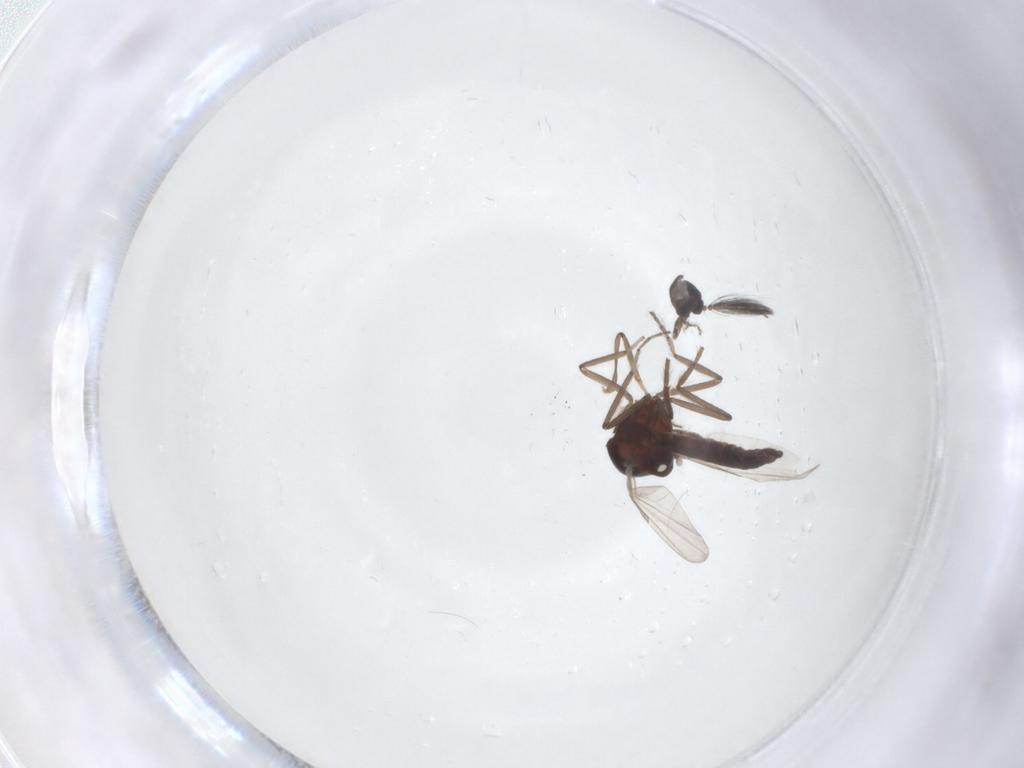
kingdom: Animalia
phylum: Arthropoda
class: Insecta
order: Diptera
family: Ceratopogonidae
